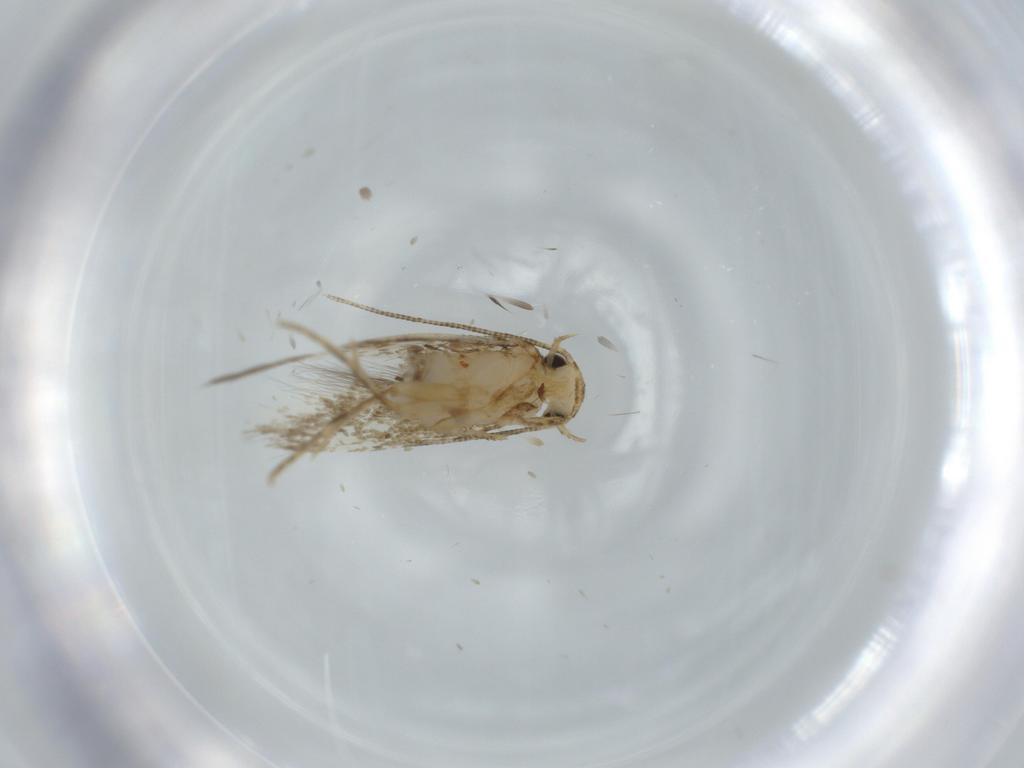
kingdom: Animalia
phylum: Arthropoda
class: Insecta
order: Lepidoptera
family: Tineidae
